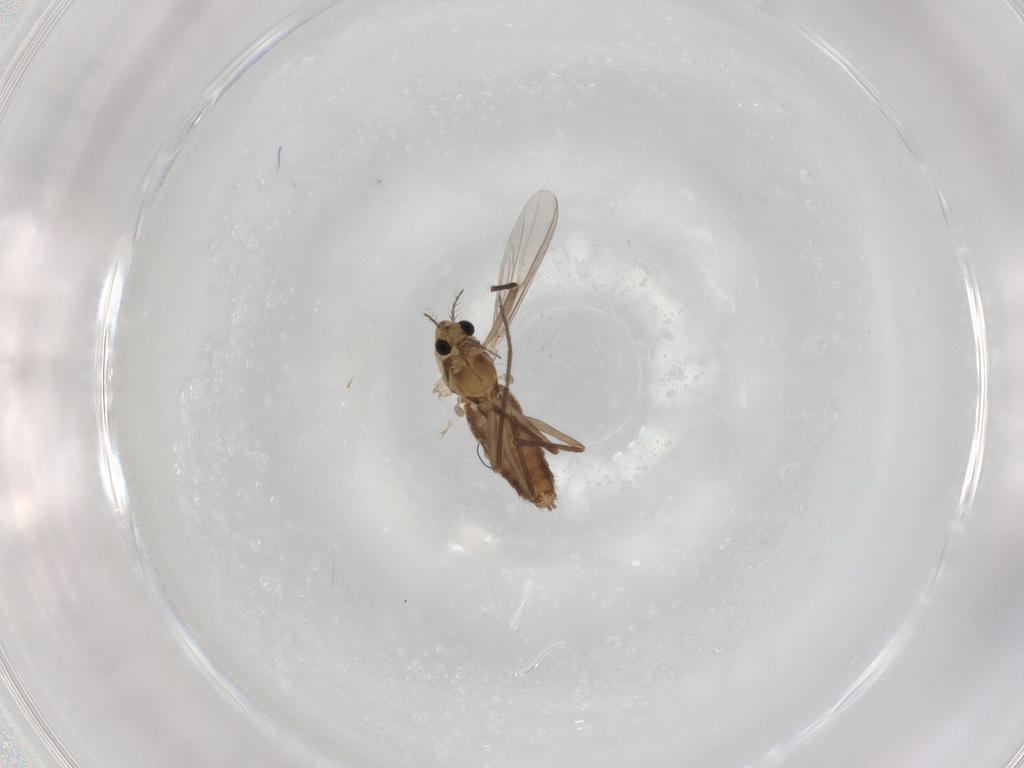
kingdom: Animalia
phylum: Arthropoda
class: Insecta
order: Diptera
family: Chironomidae
